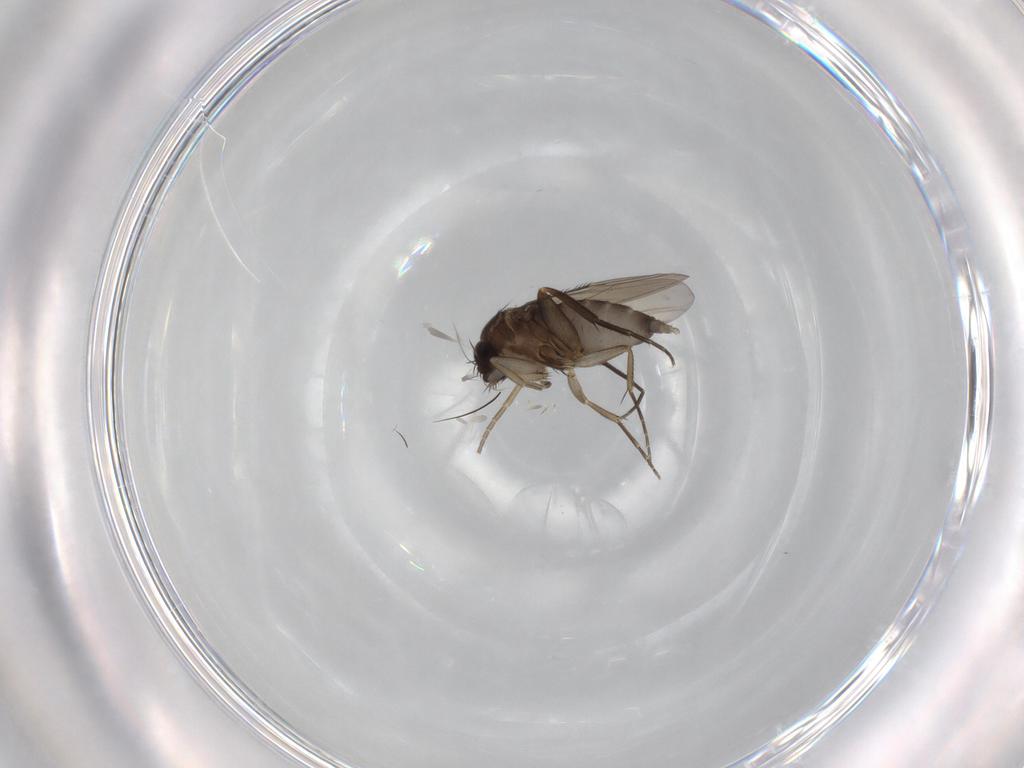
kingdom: Animalia
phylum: Arthropoda
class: Insecta
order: Diptera
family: Phoridae
